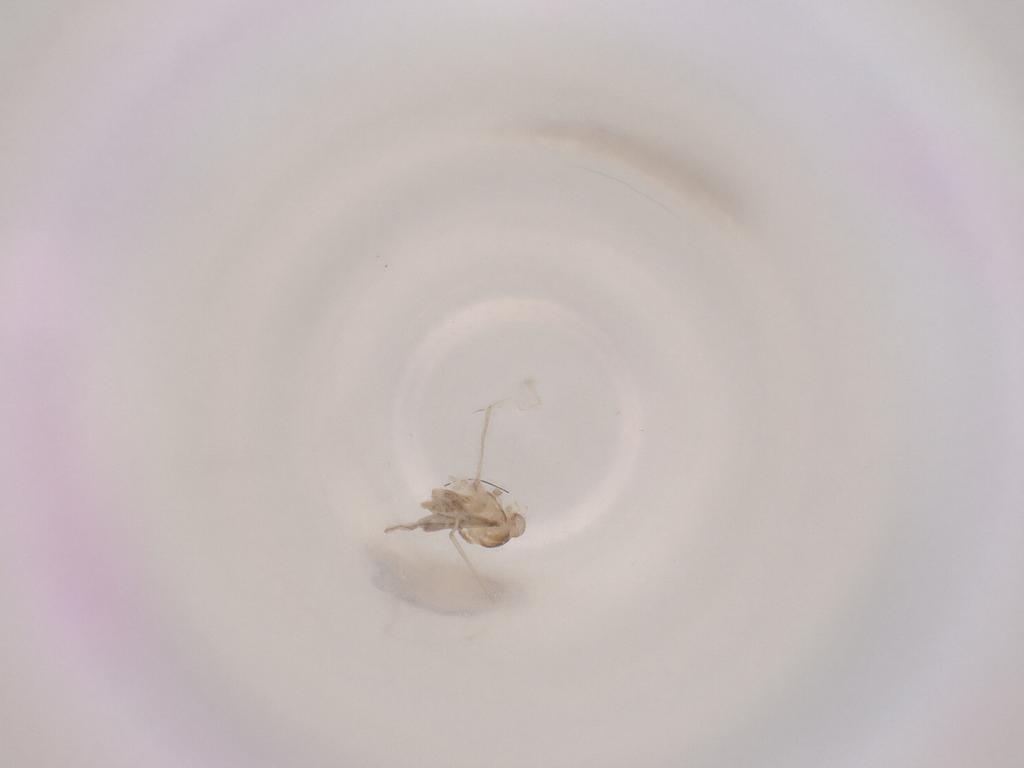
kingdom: Animalia
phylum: Arthropoda
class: Insecta
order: Diptera
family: Cecidomyiidae
